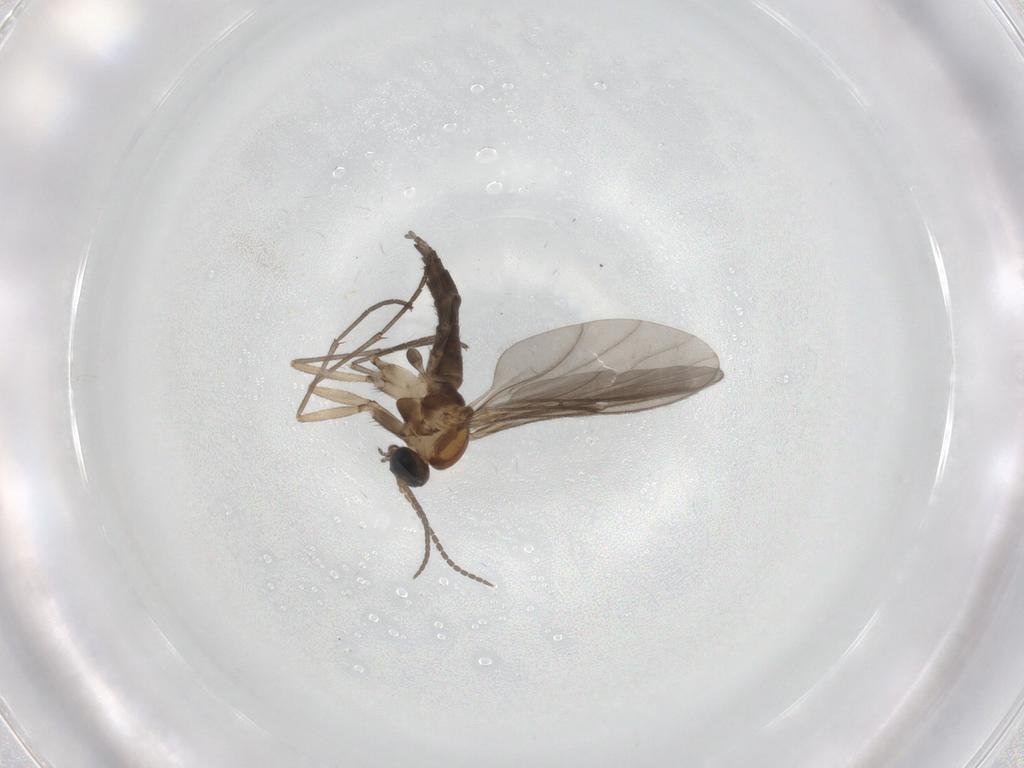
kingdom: Animalia
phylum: Arthropoda
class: Insecta
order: Diptera
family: Sciaridae
